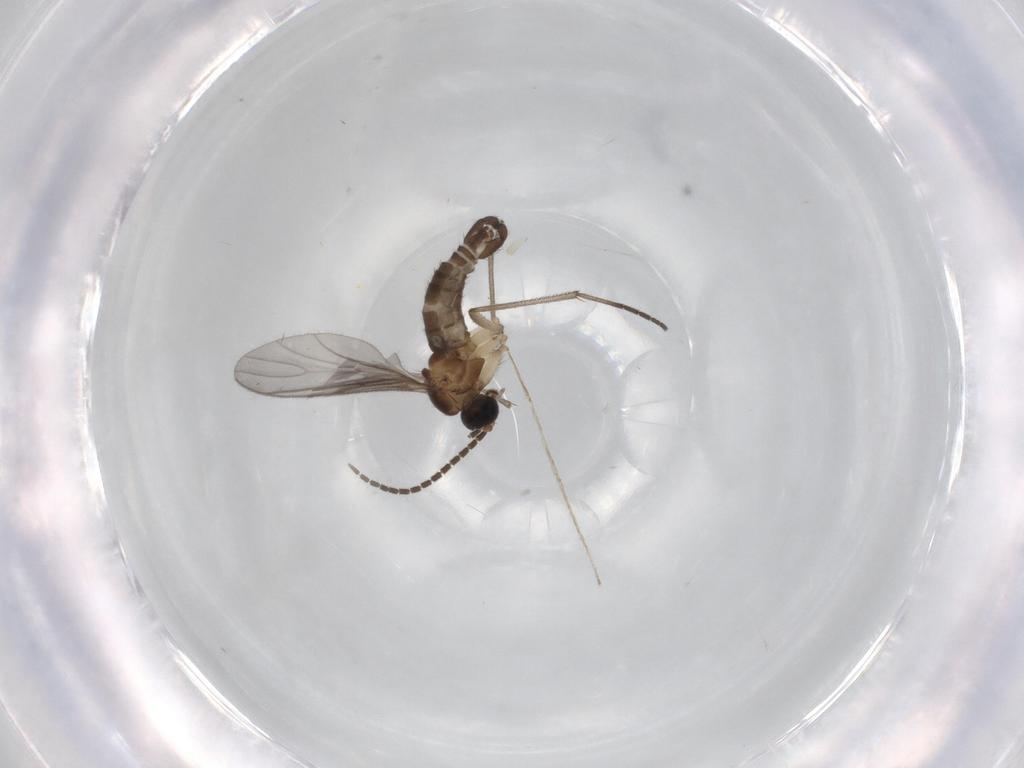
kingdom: Animalia
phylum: Arthropoda
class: Insecta
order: Diptera
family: Sciaridae
